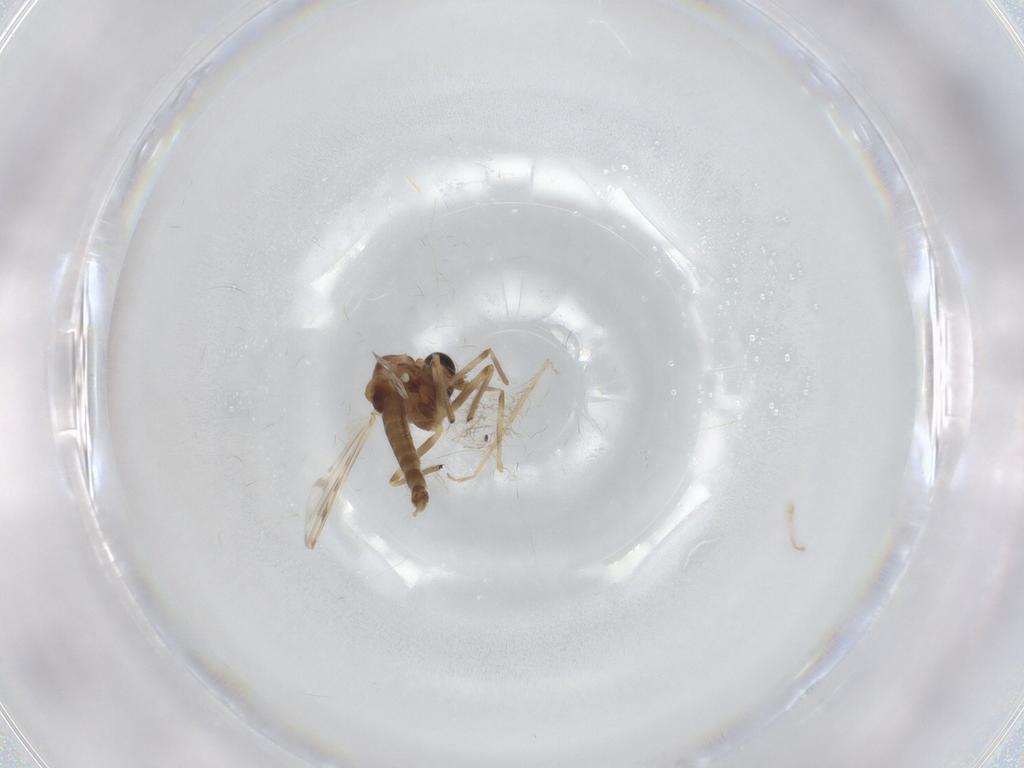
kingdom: Animalia
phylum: Arthropoda
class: Insecta
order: Diptera
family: Chironomidae
